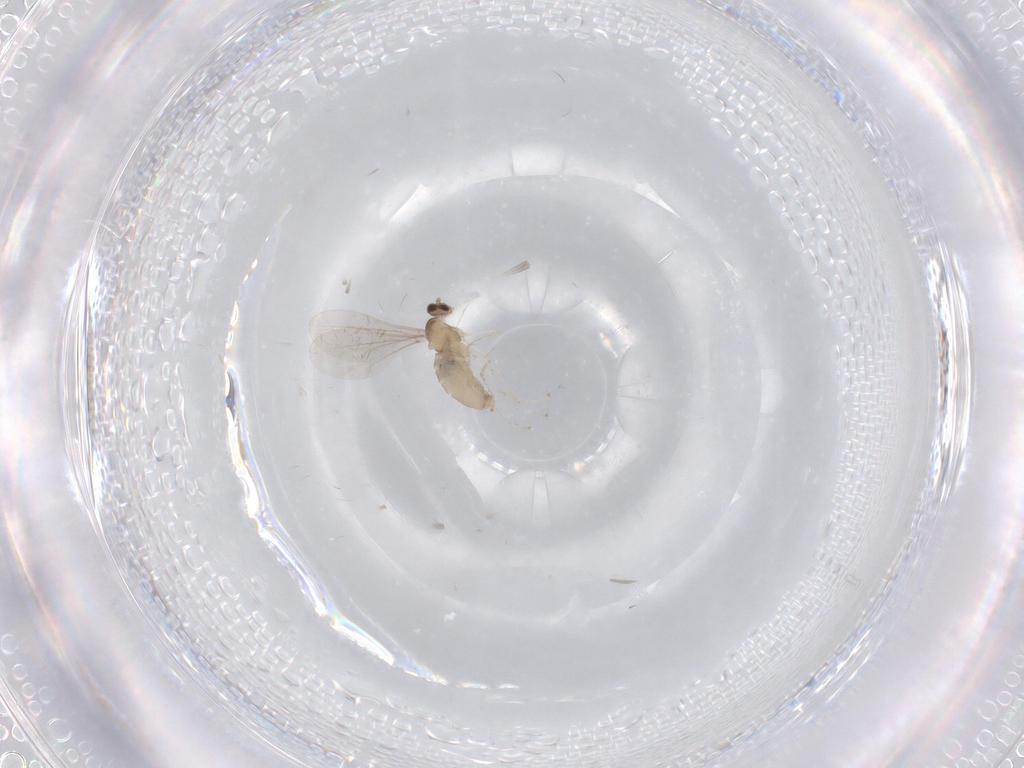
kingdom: Animalia
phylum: Arthropoda
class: Insecta
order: Diptera
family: Cecidomyiidae
